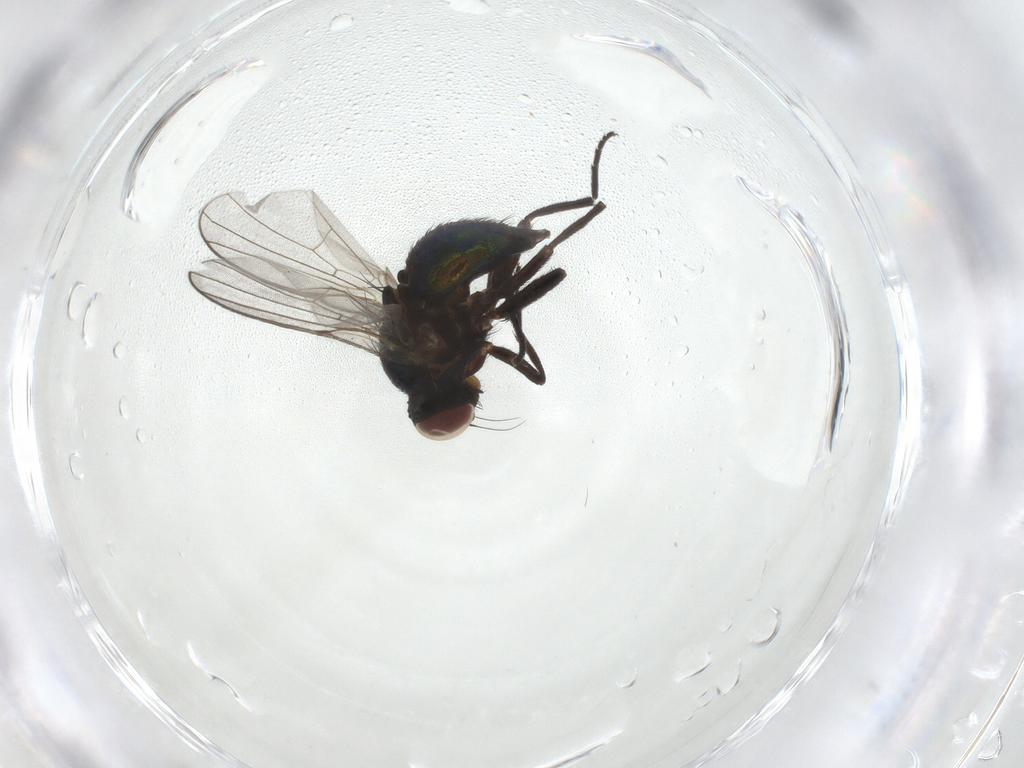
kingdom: Animalia
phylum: Arthropoda
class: Insecta
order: Diptera
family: Agromyzidae
